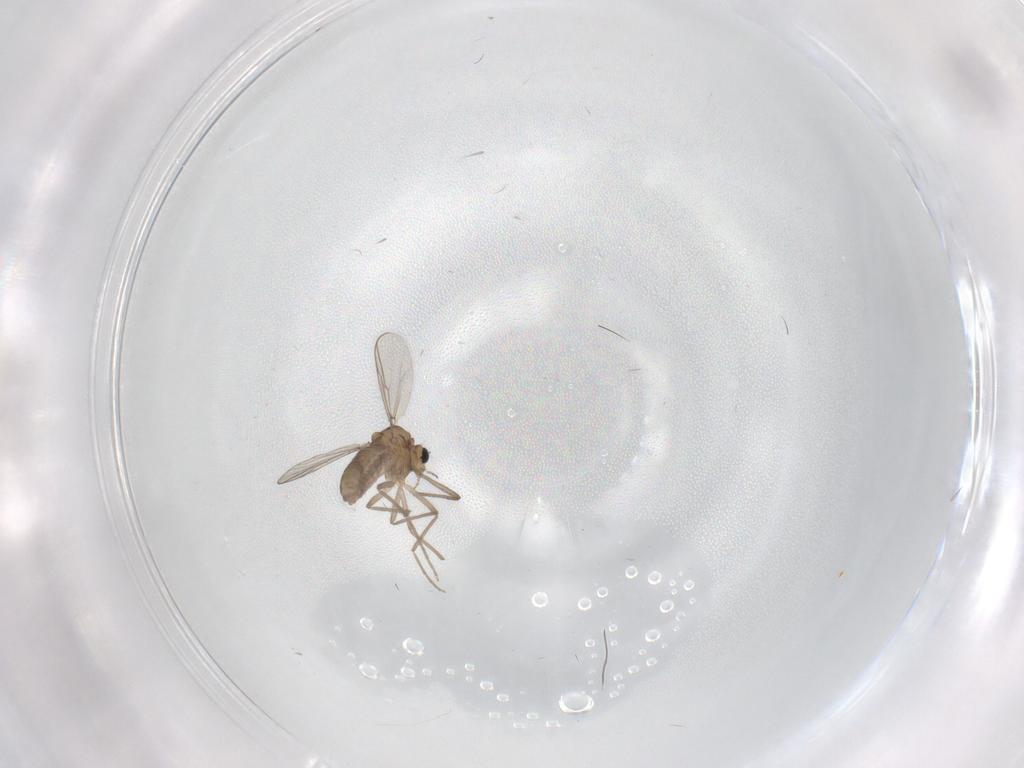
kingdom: Animalia
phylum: Arthropoda
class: Insecta
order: Diptera
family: Chironomidae
